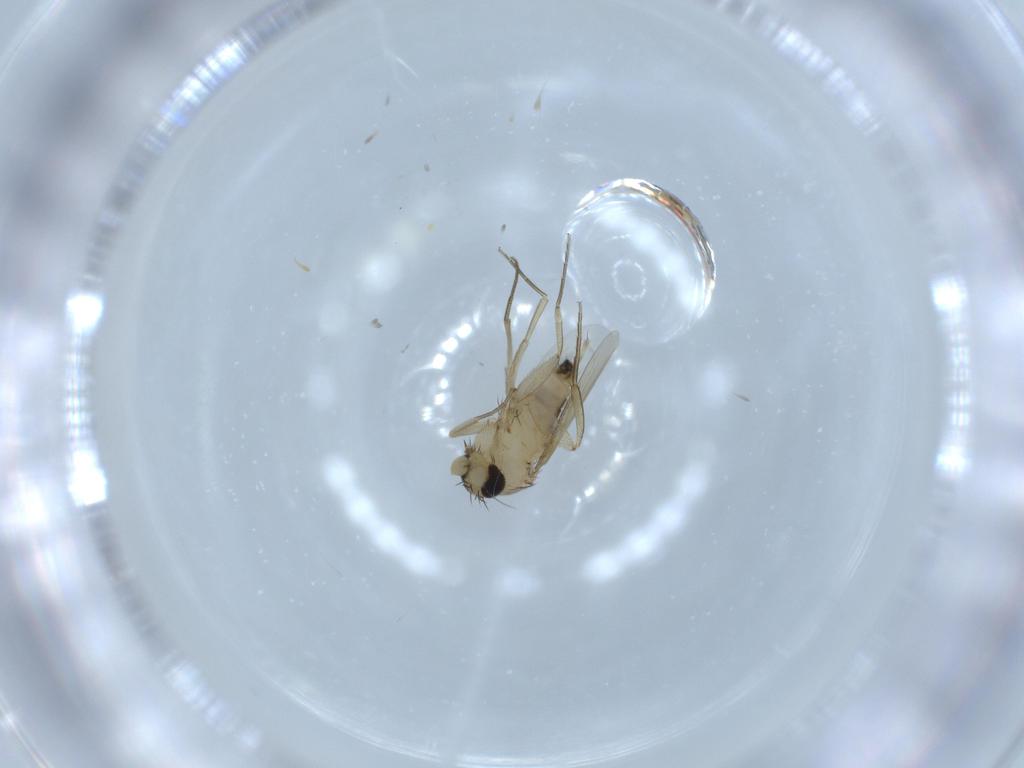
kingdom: Animalia
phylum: Arthropoda
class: Insecta
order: Diptera
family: Phoridae
